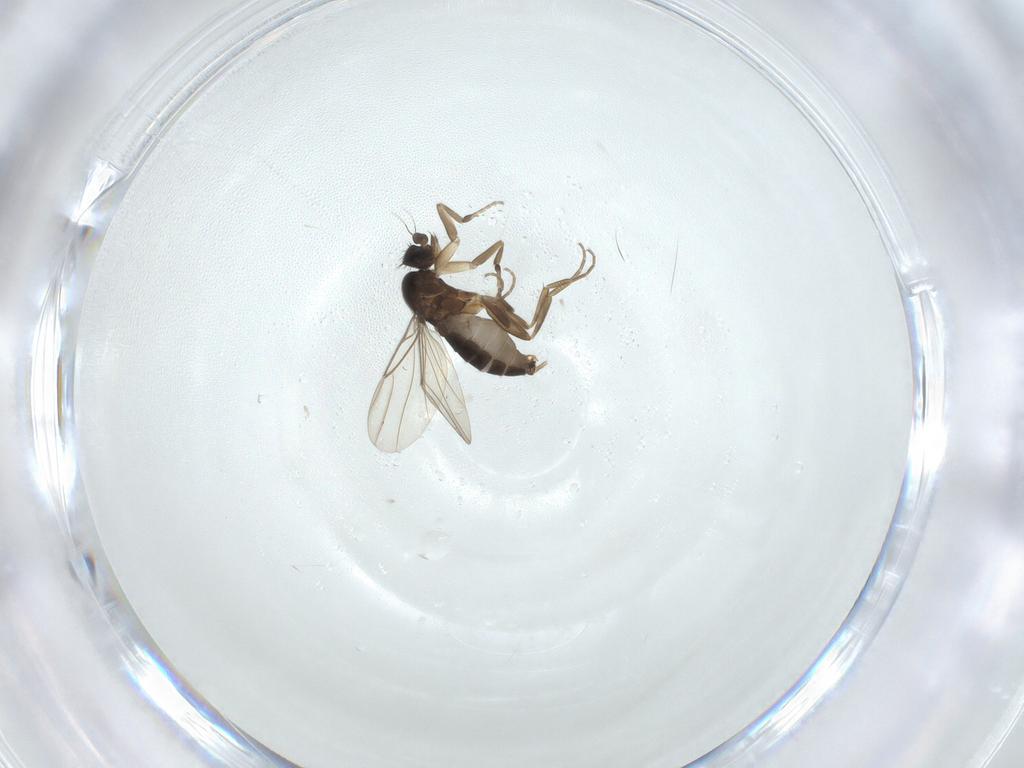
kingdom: Animalia
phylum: Arthropoda
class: Insecta
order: Diptera
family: Phoridae
